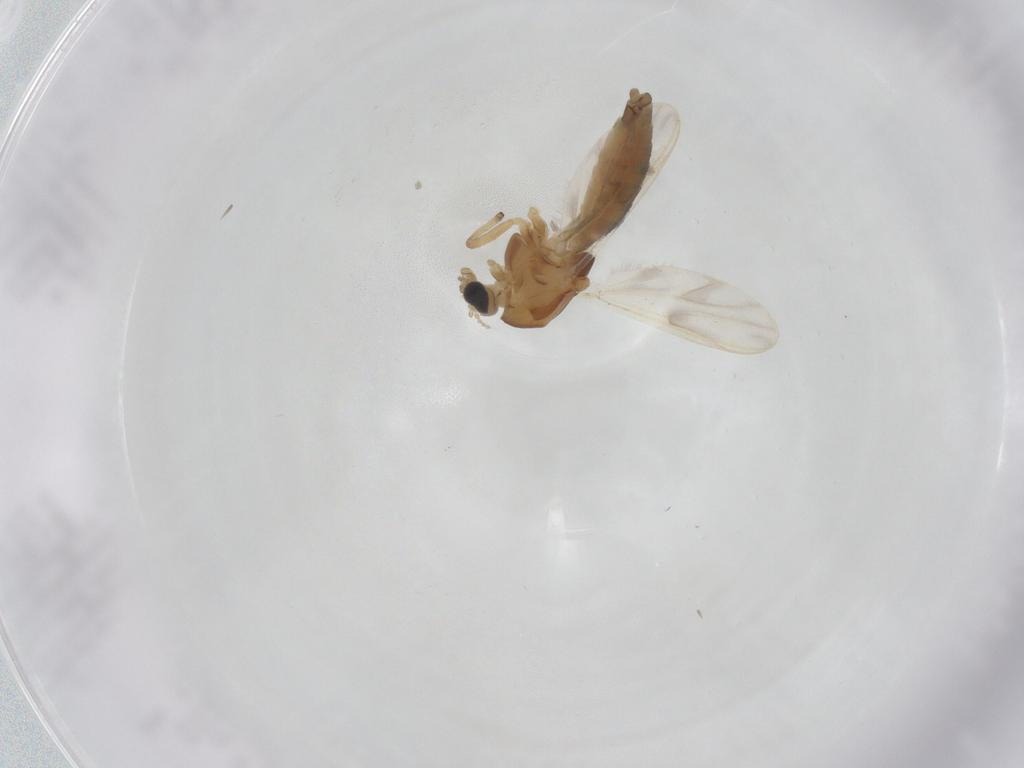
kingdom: Animalia
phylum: Arthropoda
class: Insecta
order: Diptera
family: Chironomidae
